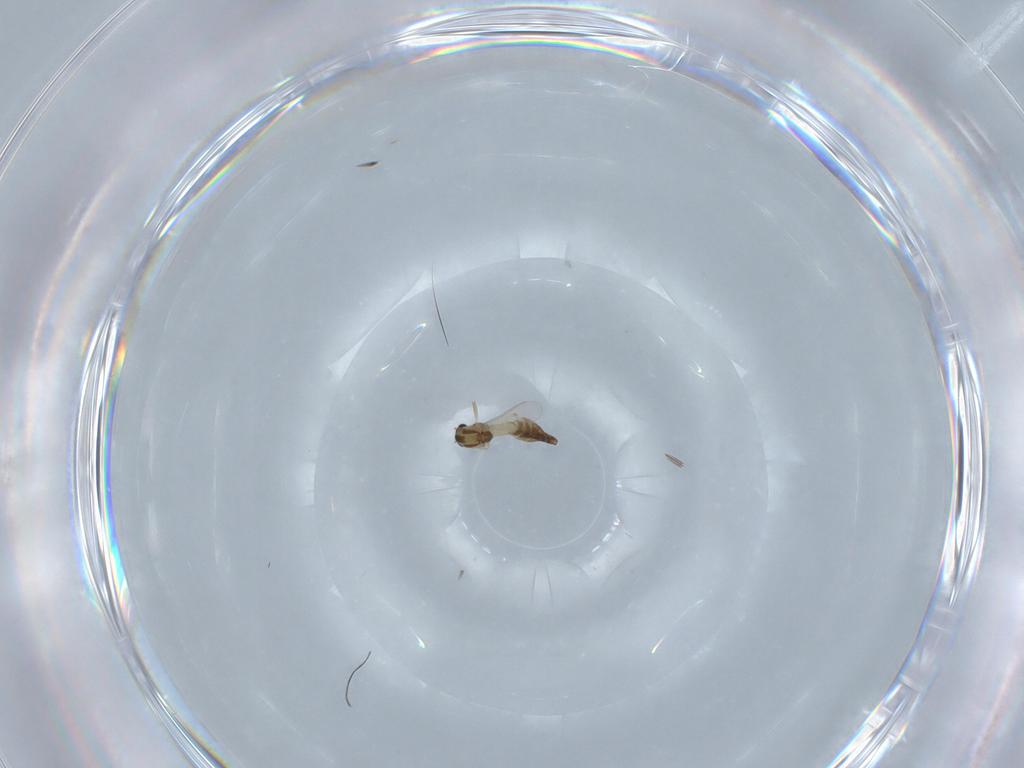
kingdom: Animalia
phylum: Arthropoda
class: Insecta
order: Diptera
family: Chironomidae
